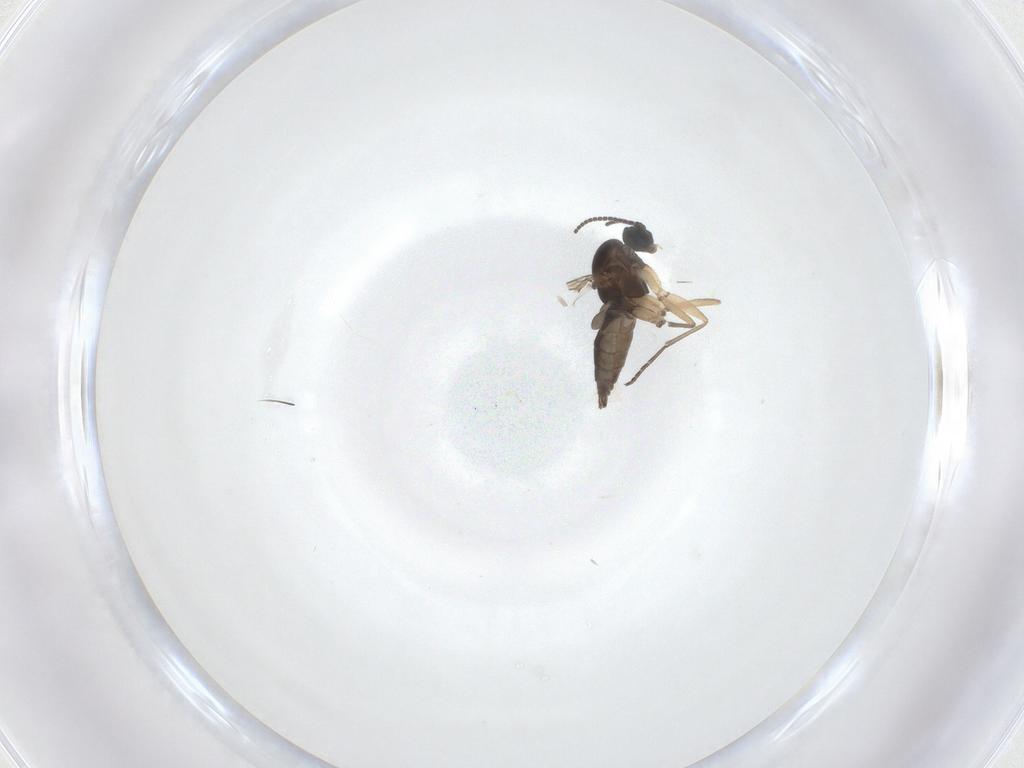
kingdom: Animalia
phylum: Arthropoda
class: Insecta
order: Diptera
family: Sciaridae
